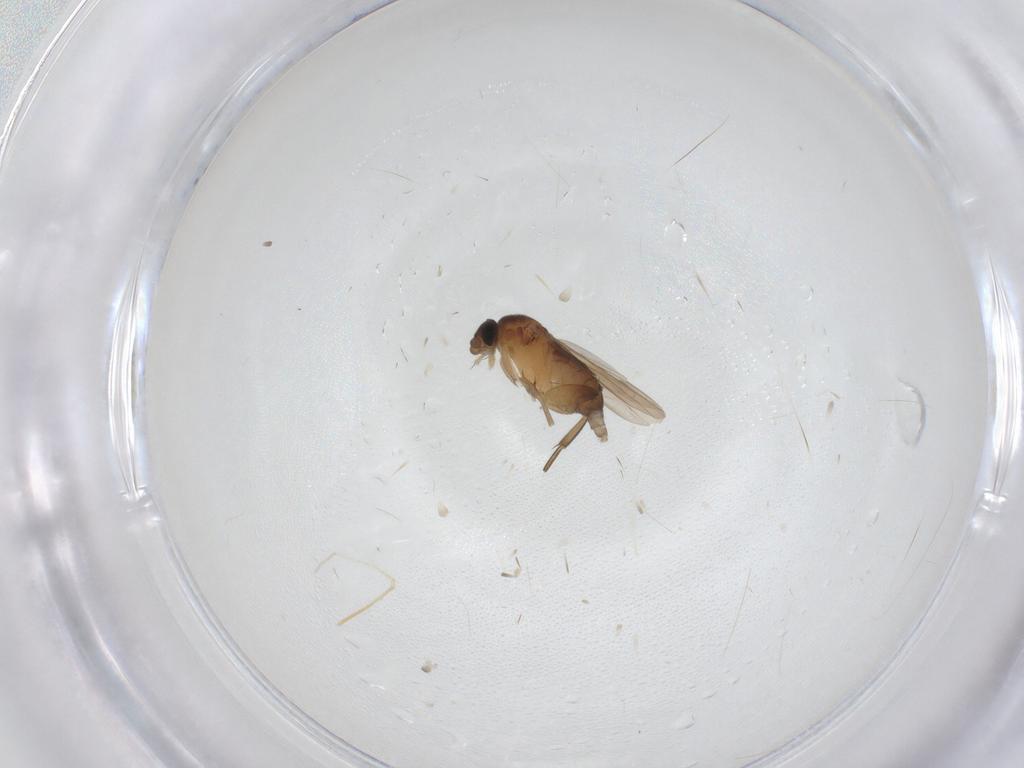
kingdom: Animalia
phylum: Arthropoda
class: Insecta
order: Diptera
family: Phoridae
